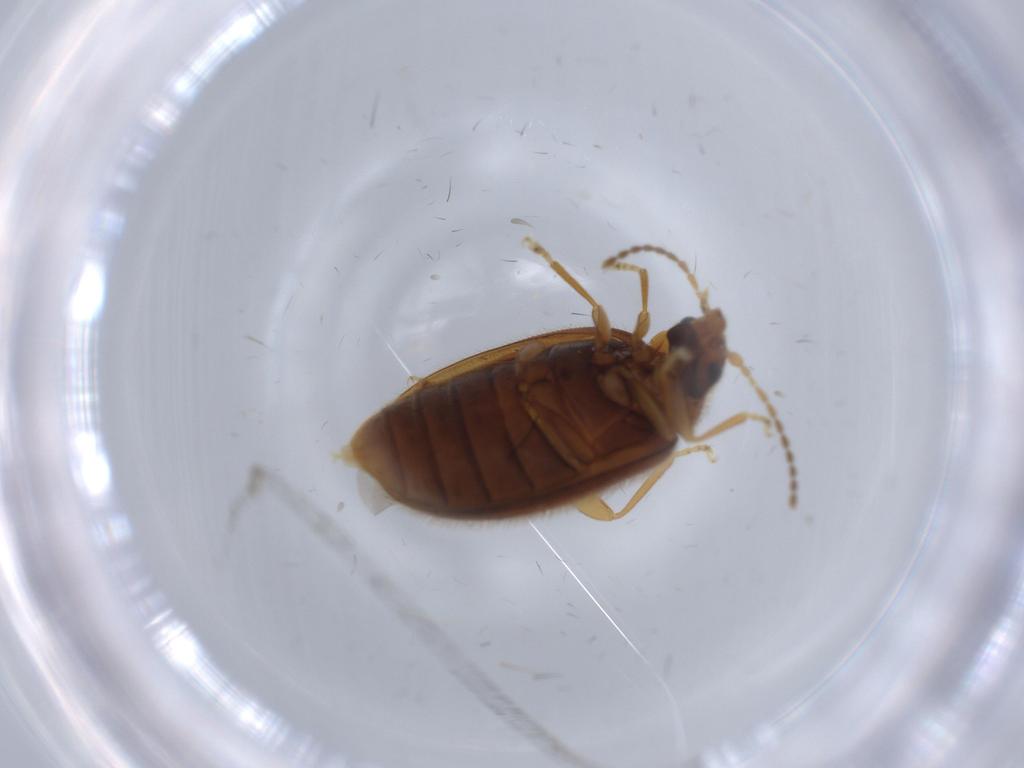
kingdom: Animalia
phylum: Arthropoda
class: Insecta
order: Coleoptera
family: Scirtidae
